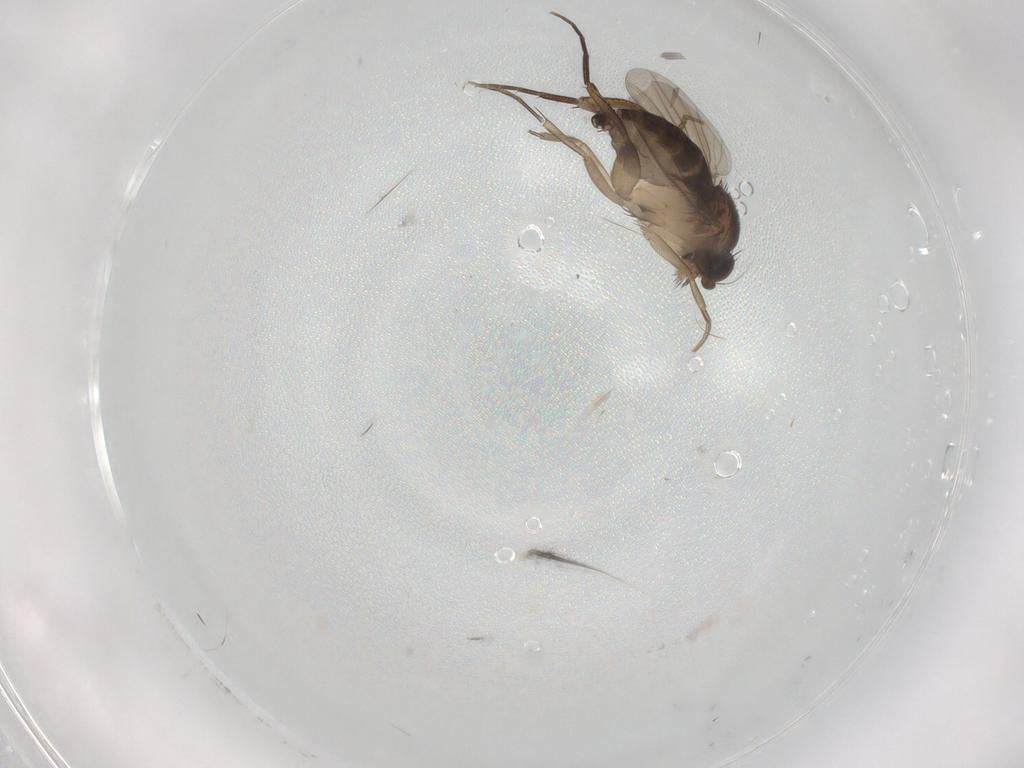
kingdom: Animalia
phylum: Arthropoda
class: Insecta
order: Diptera
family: Phoridae
